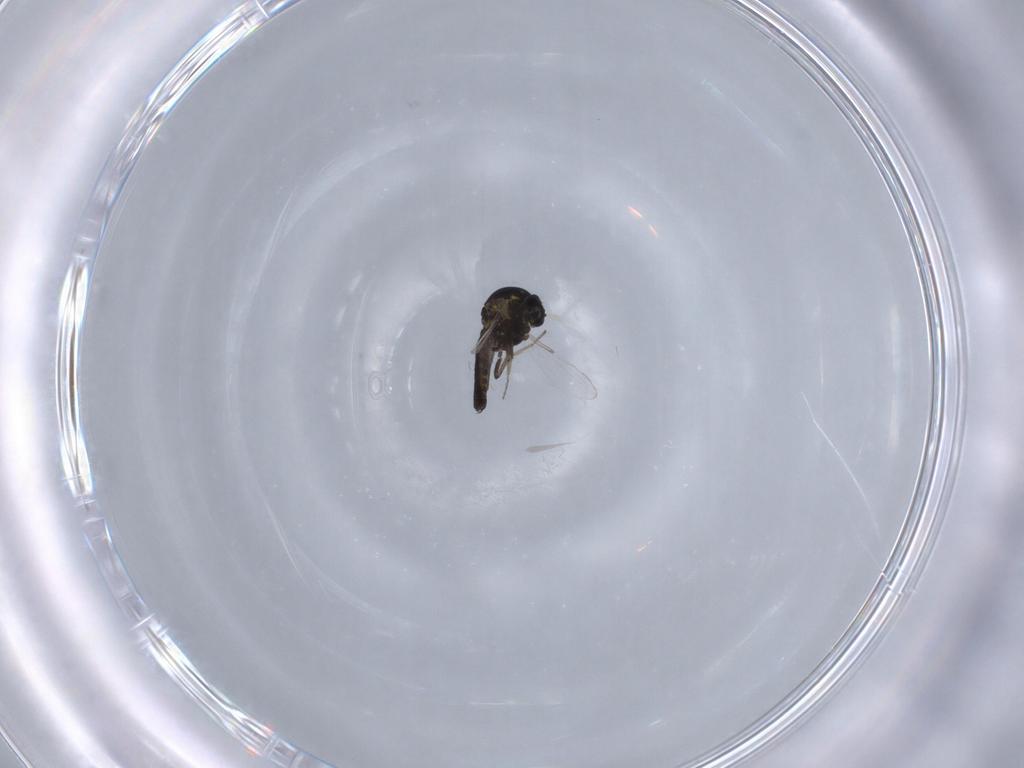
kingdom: Animalia
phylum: Arthropoda
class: Insecta
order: Diptera
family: Ceratopogonidae
